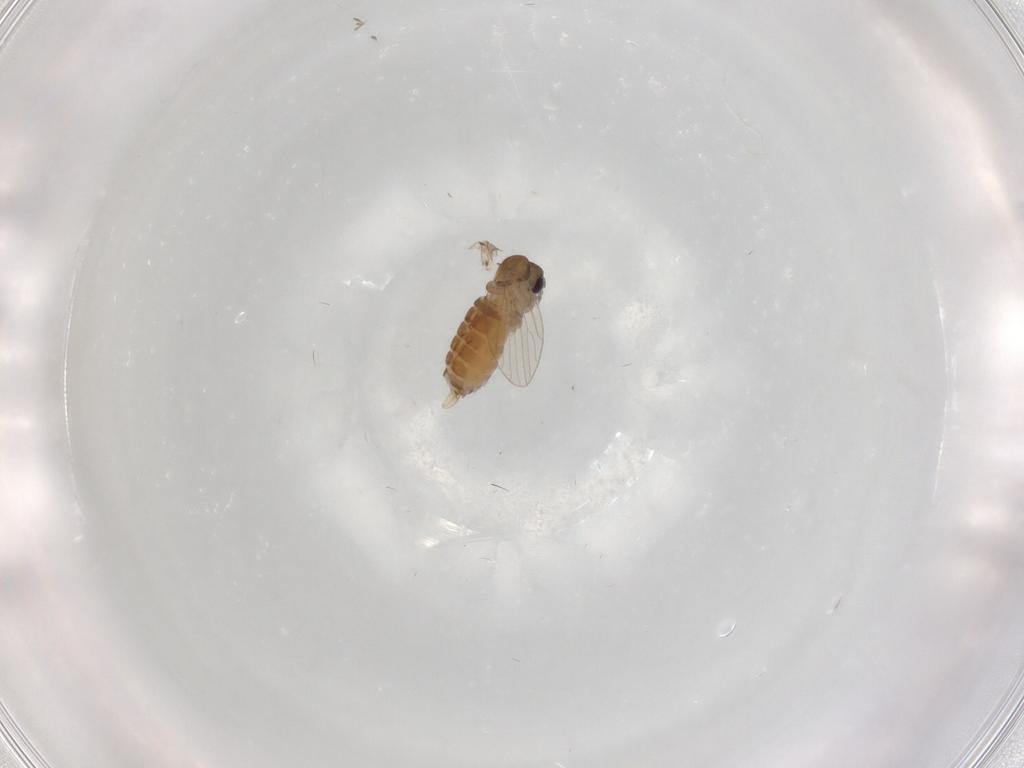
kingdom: Animalia
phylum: Arthropoda
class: Insecta
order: Diptera
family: Psychodidae
